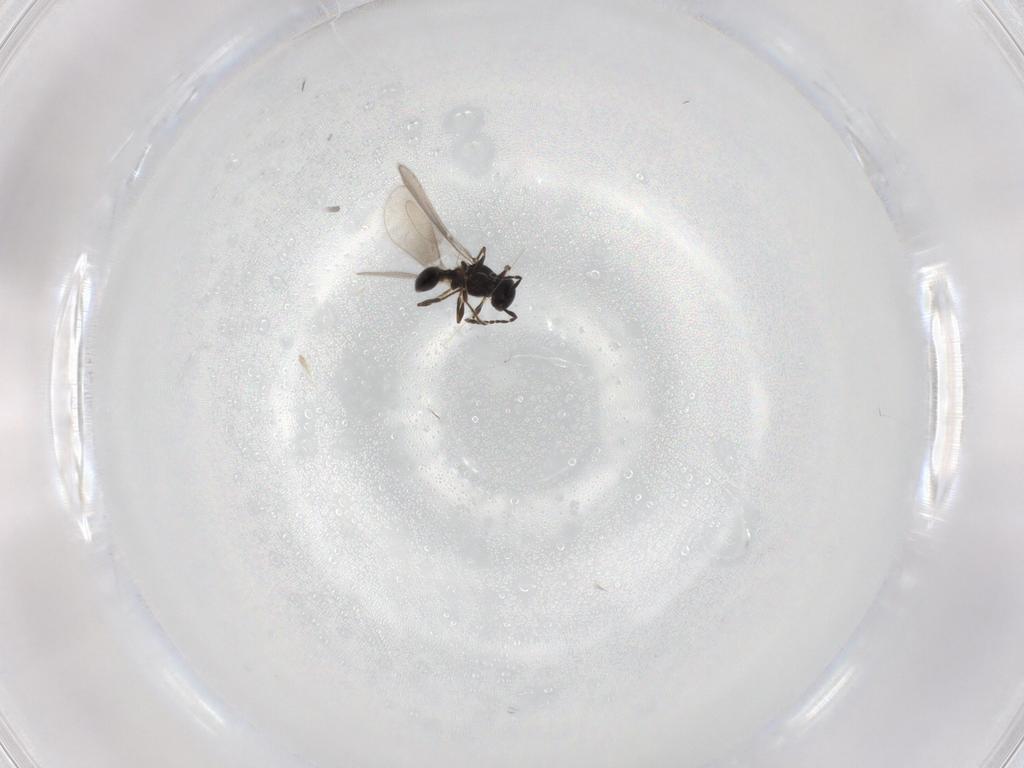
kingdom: Animalia
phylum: Arthropoda
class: Insecta
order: Hymenoptera
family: Platygastridae
